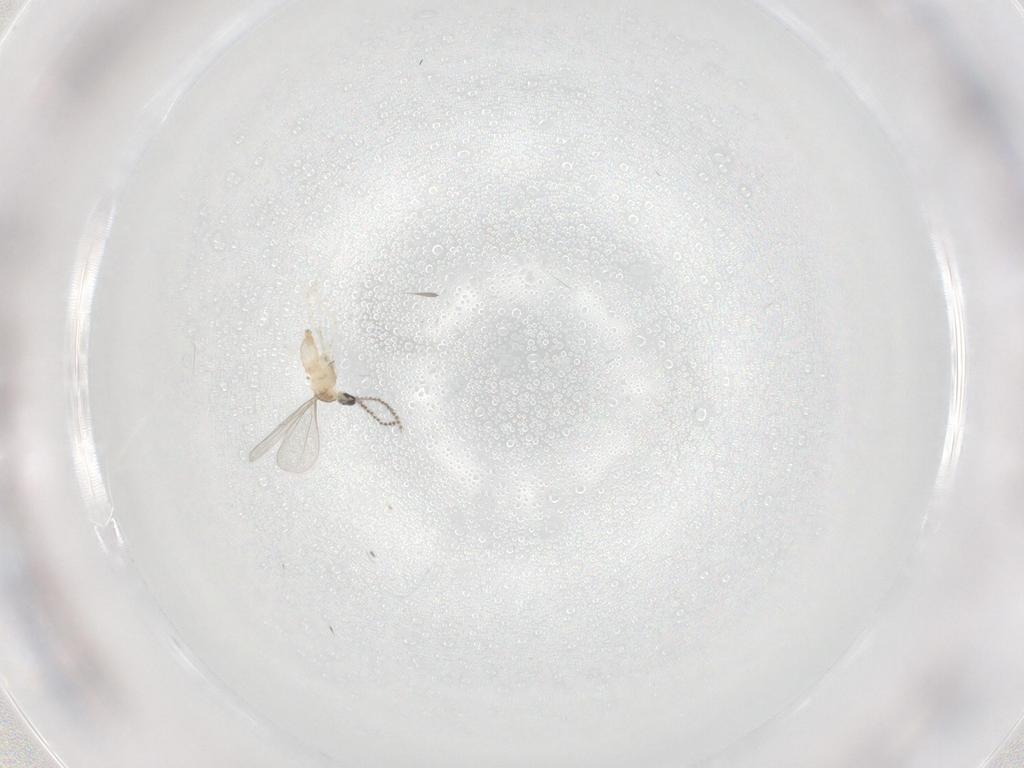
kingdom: Animalia
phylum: Arthropoda
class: Insecta
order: Diptera
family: Cecidomyiidae
